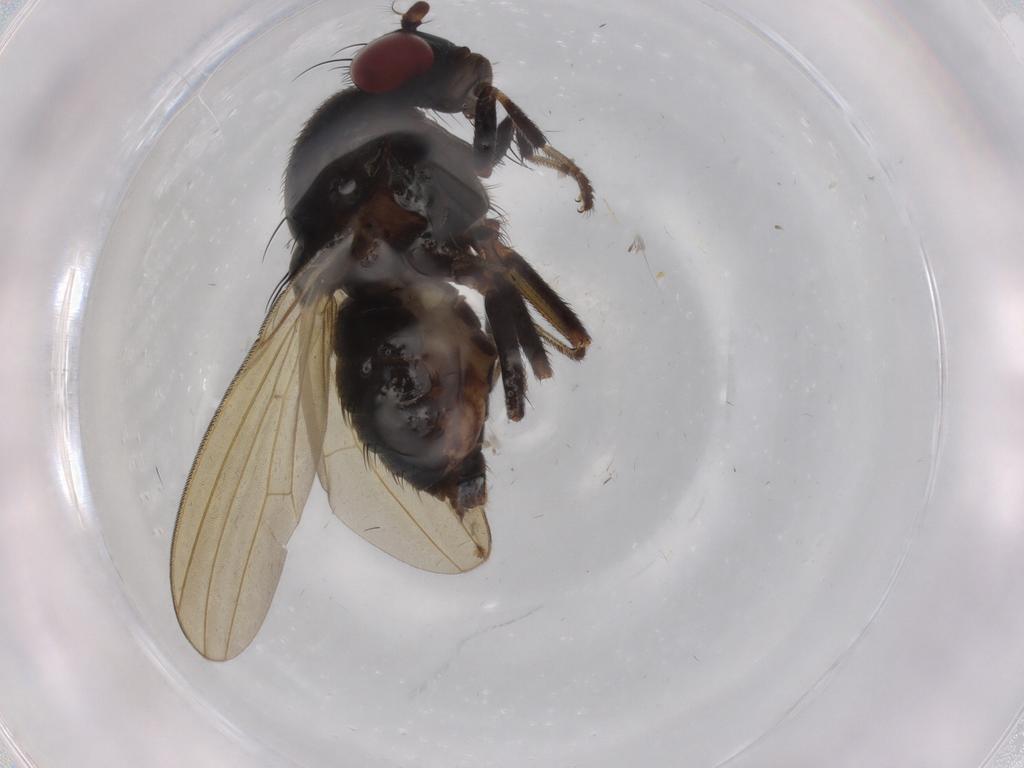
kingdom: Animalia
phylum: Arthropoda
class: Insecta
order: Diptera
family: Chironomidae
